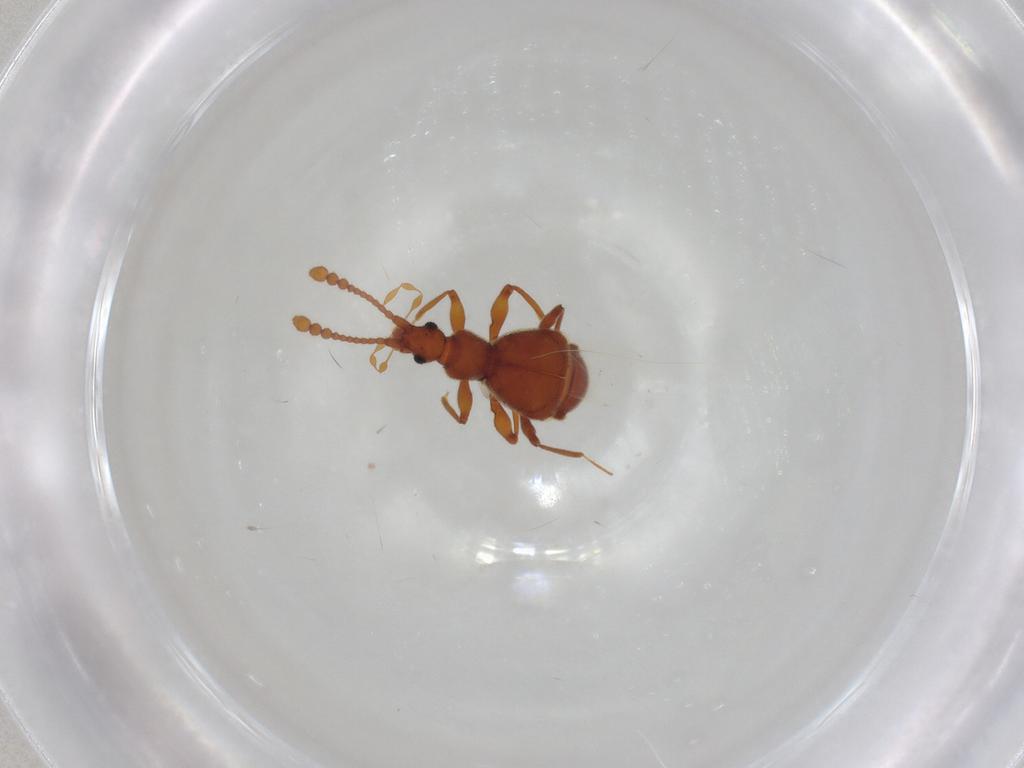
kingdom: Animalia
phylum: Arthropoda
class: Insecta
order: Coleoptera
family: Staphylinidae
